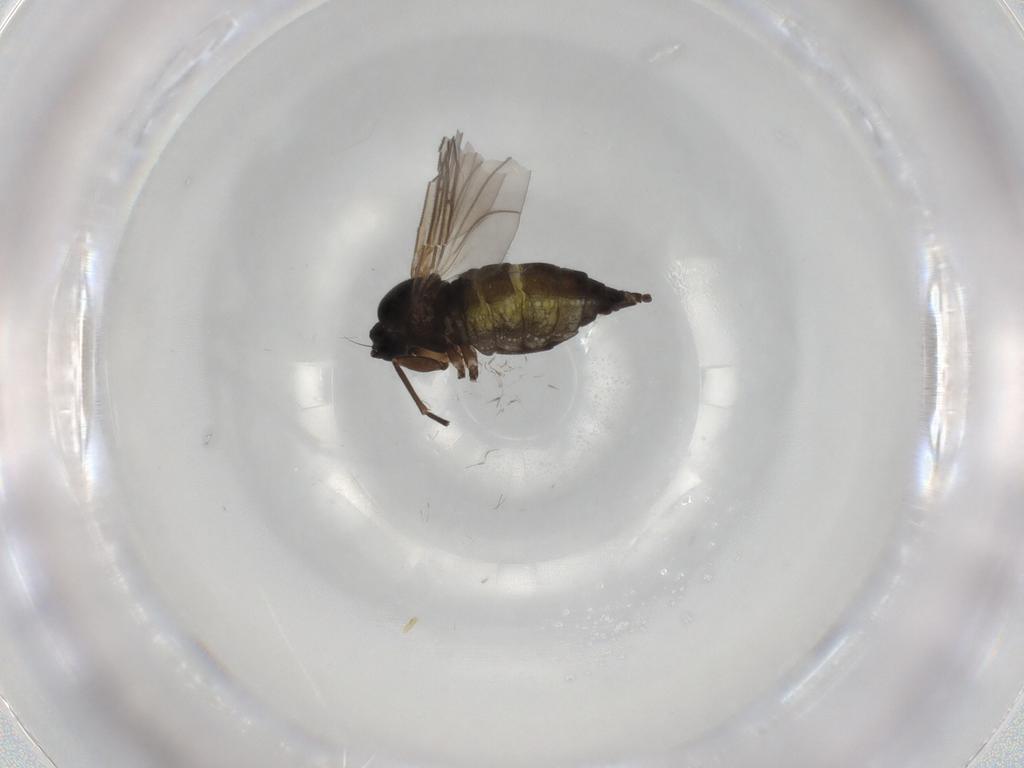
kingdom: Animalia
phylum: Arthropoda
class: Insecta
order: Diptera
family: Sciaridae
